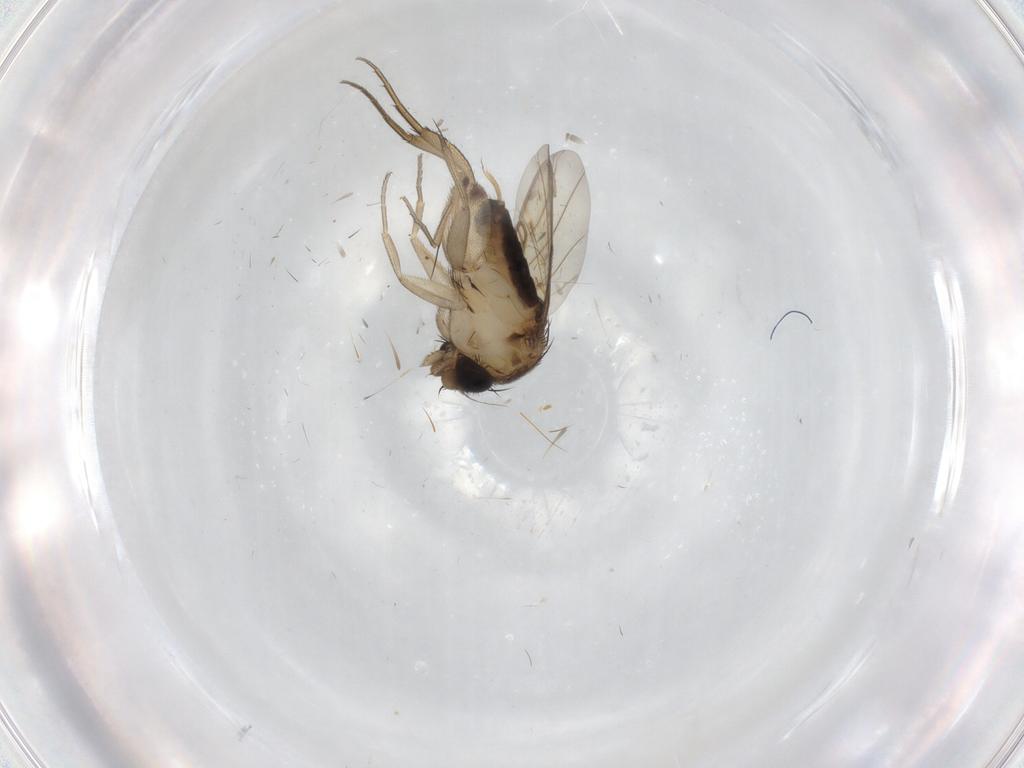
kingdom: Animalia
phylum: Arthropoda
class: Insecta
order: Diptera
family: Phoridae
